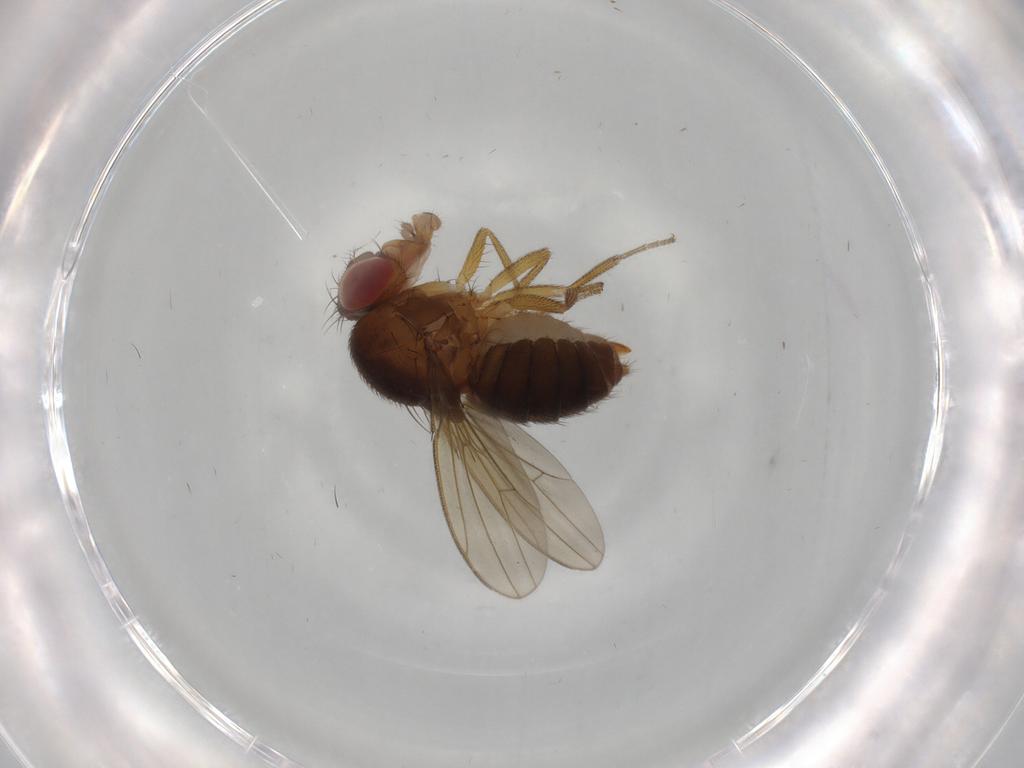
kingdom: Animalia
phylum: Arthropoda
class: Insecta
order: Diptera
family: Drosophilidae
